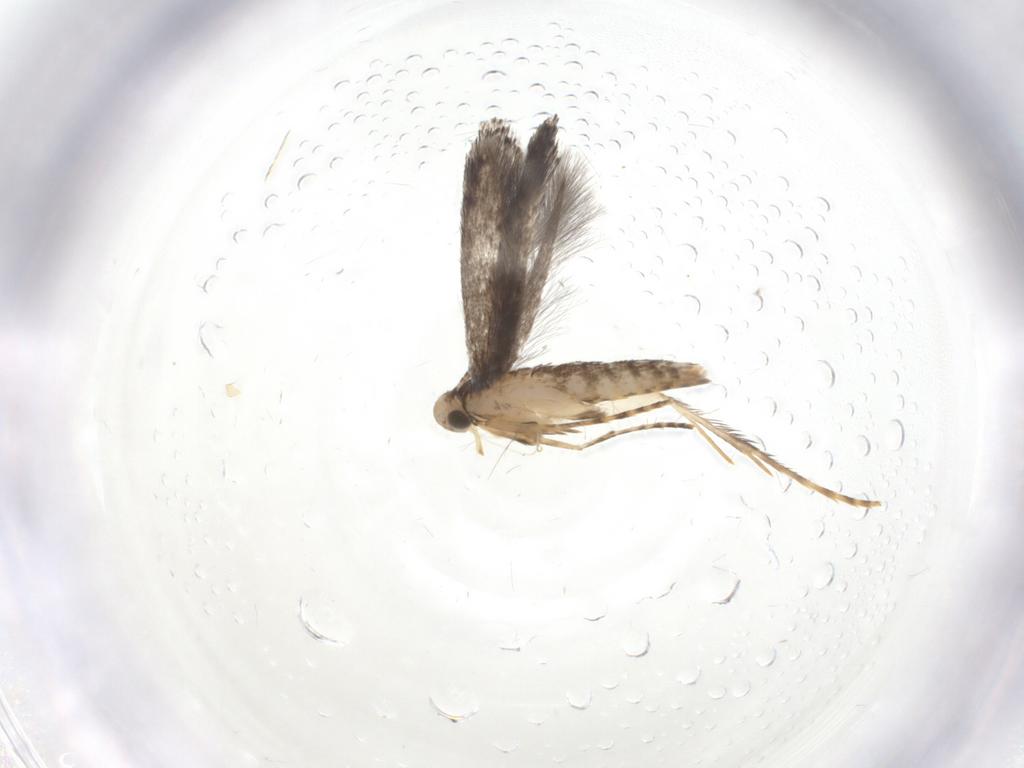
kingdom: Animalia
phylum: Arthropoda
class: Insecta
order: Lepidoptera
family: Gracillariidae
